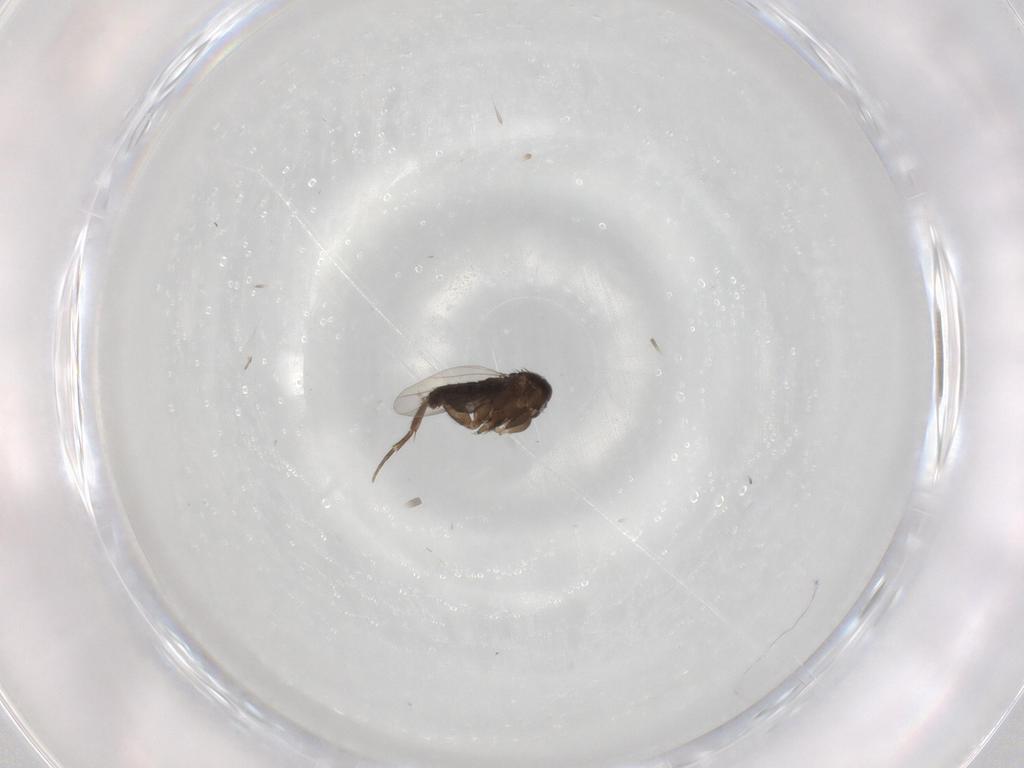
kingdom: Animalia
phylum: Arthropoda
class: Insecta
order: Diptera
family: Phoridae
